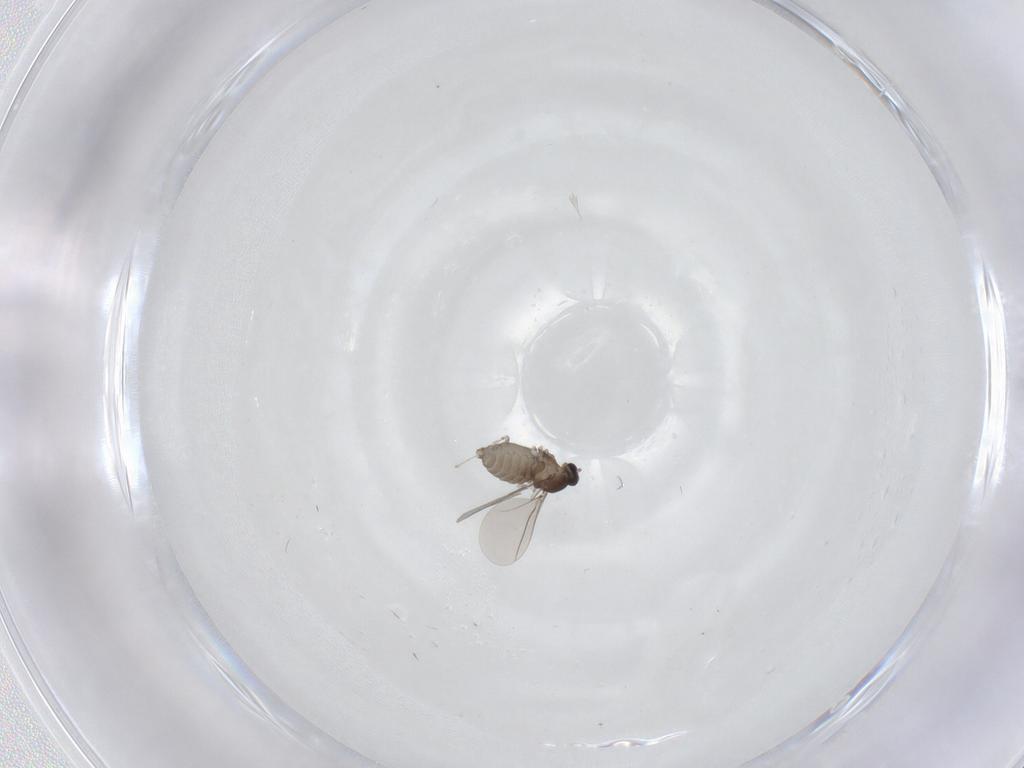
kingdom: Animalia
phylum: Arthropoda
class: Insecta
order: Diptera
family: Cecidomyiidae
